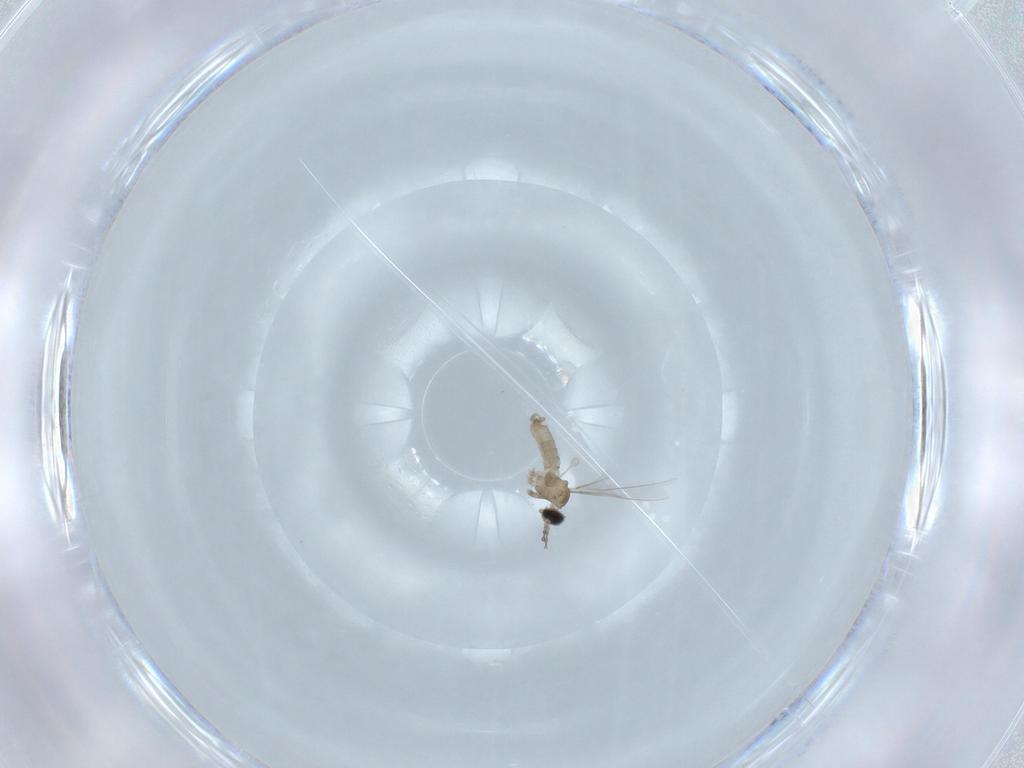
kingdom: Animalia
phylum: Arthropoda
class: Insecta
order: Diptera
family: Cecidomyiidae
